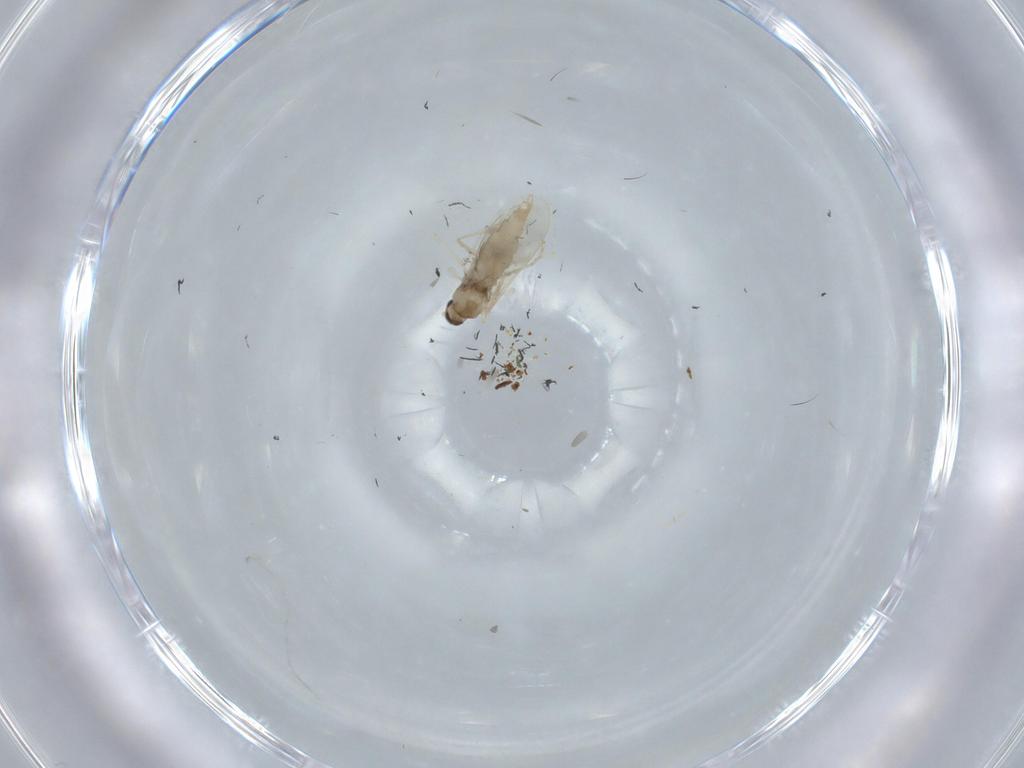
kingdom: Animalia
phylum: Arthropoda
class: Insecta
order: Diptera
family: Cecidomyiidae
